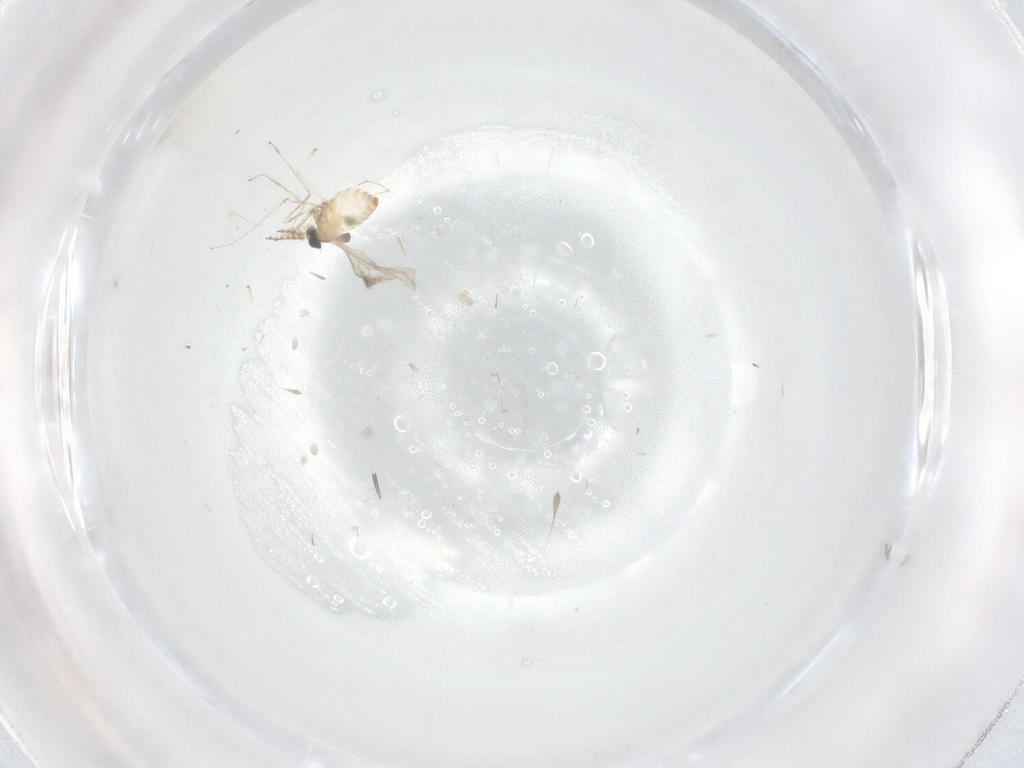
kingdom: Animalia
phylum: Arthropoda
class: Insecta
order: Diptera
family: Cecidomyiidae
